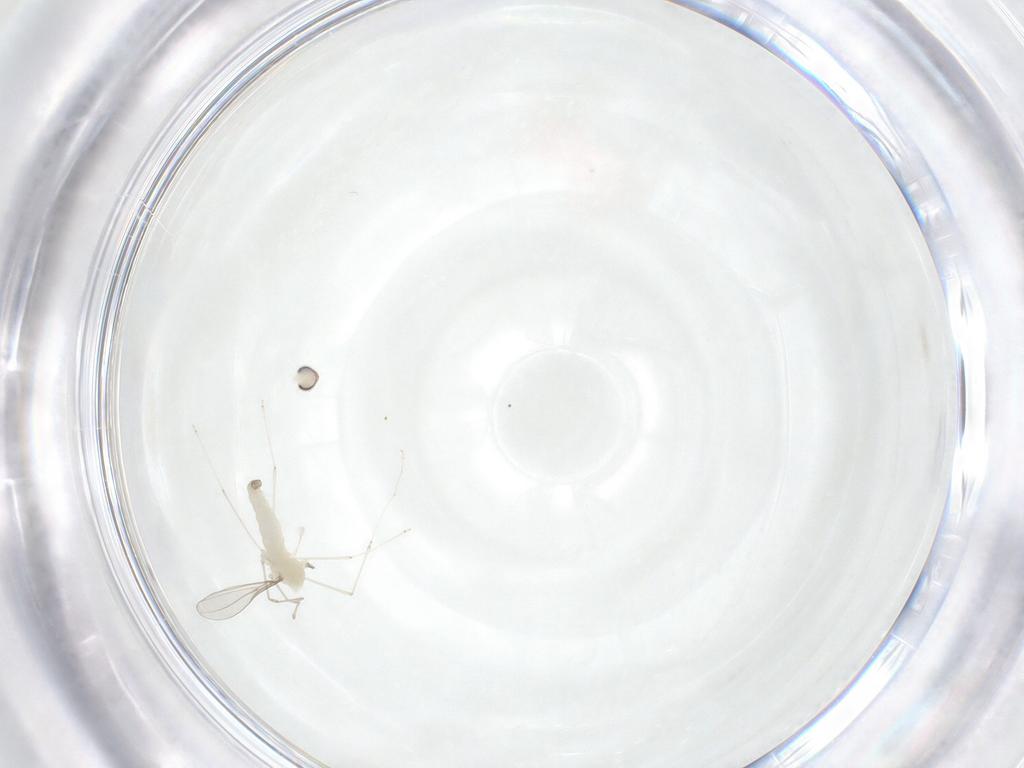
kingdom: Animalia
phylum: Arthropoda
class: Insecta
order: Diptera
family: Cecidomyiidae
